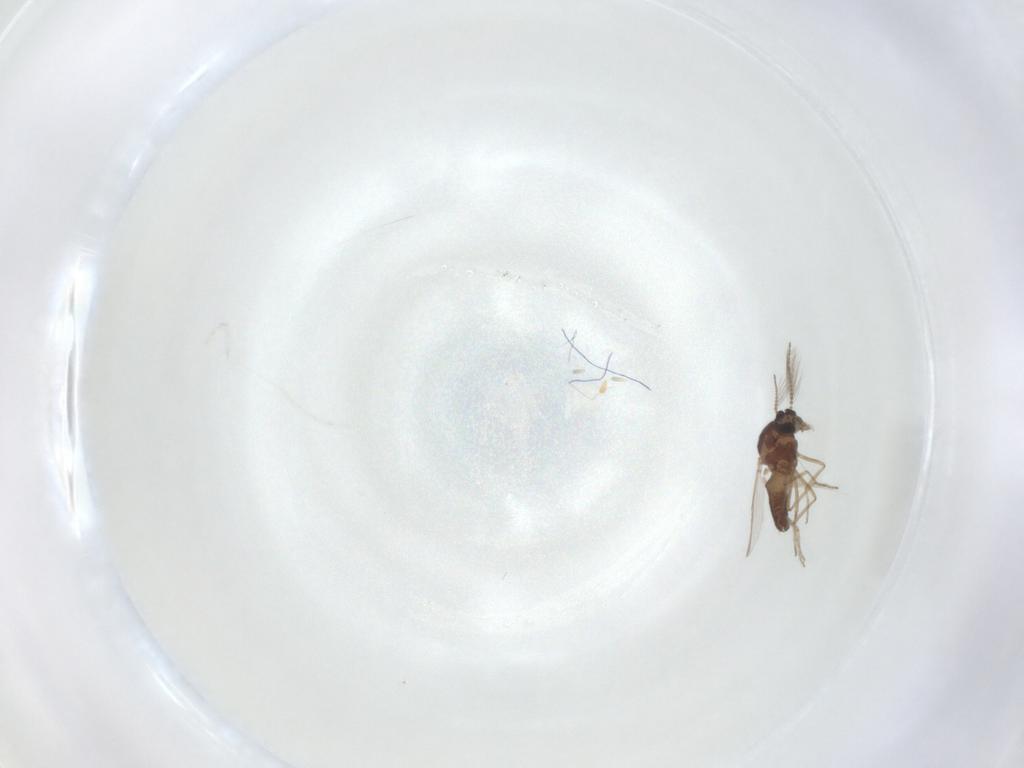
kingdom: Animalia
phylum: Arthropoda
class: Insecta
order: Diptera
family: Ceratopogonidae
